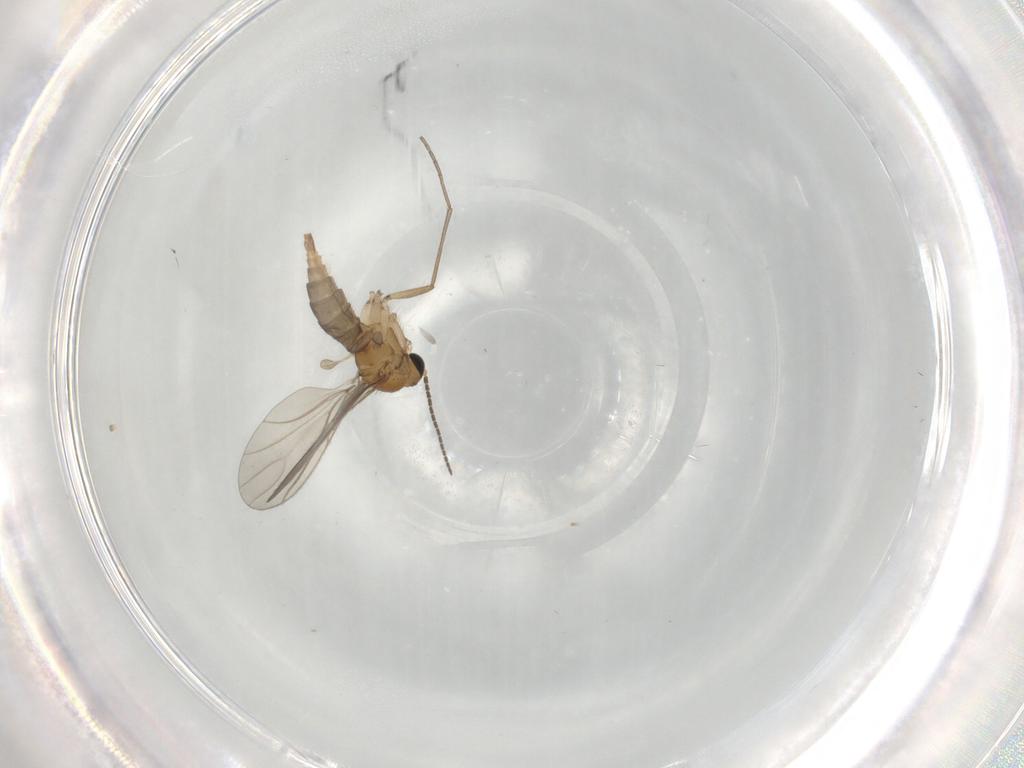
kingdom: Animalia
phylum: Arthropoda
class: Insecta
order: Diptera
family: Sciaridae
